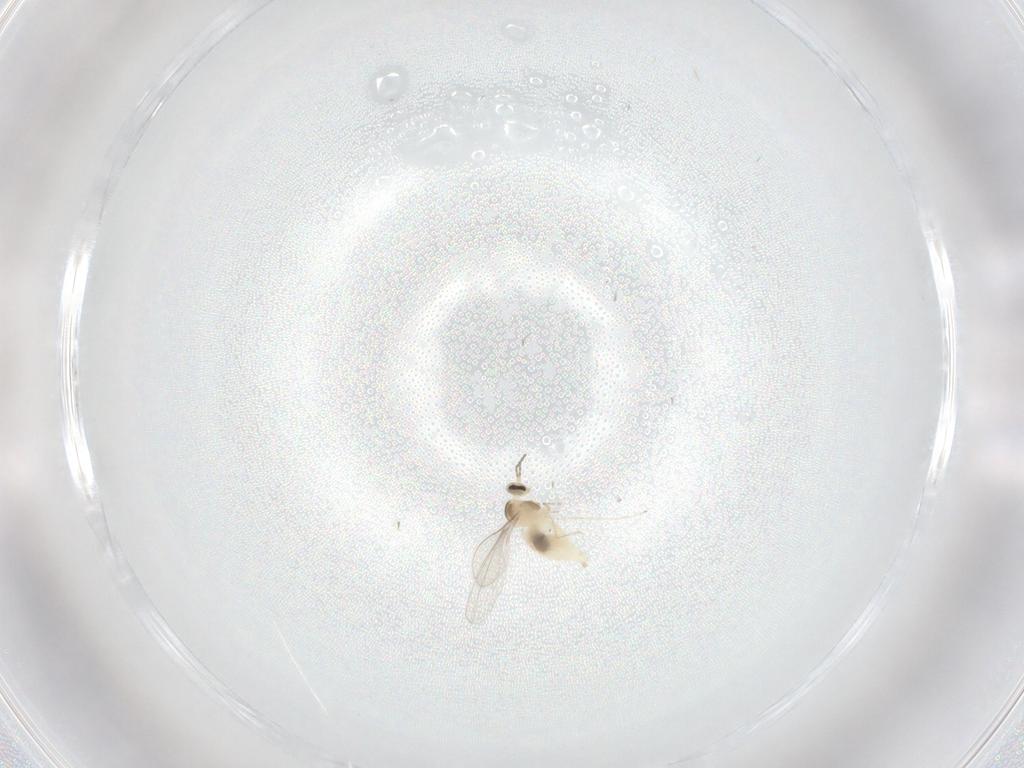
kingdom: Animalia
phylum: Arthropoda
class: Insecta
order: Diptera
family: Cecidomyiidae
